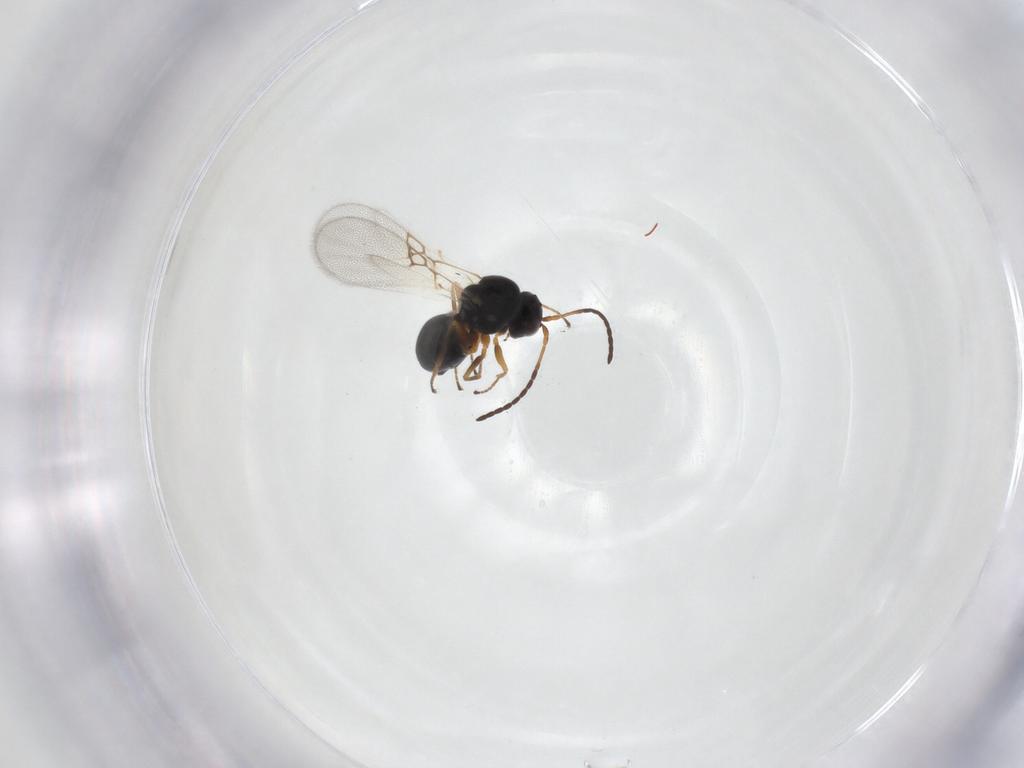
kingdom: Animalia
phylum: Arthropoda
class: Insecta
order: Hymenoptera
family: Figitidae
